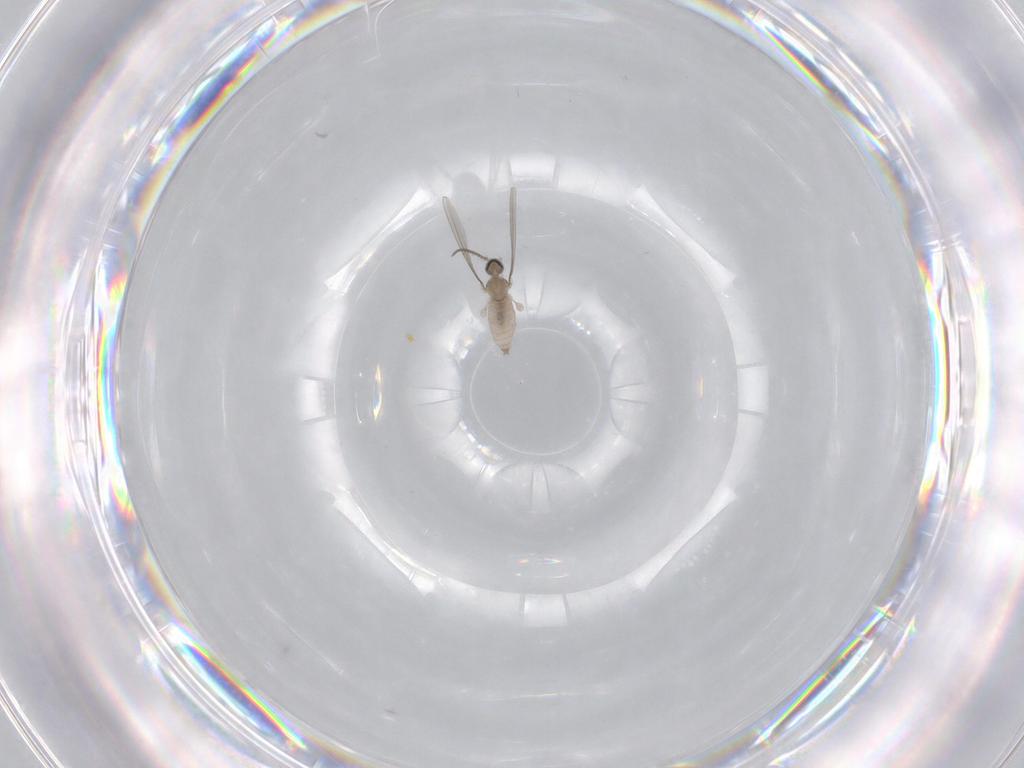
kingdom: Animalia
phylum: Arthropoda
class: Insecta
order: Diptera
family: Cecidomyiidae
